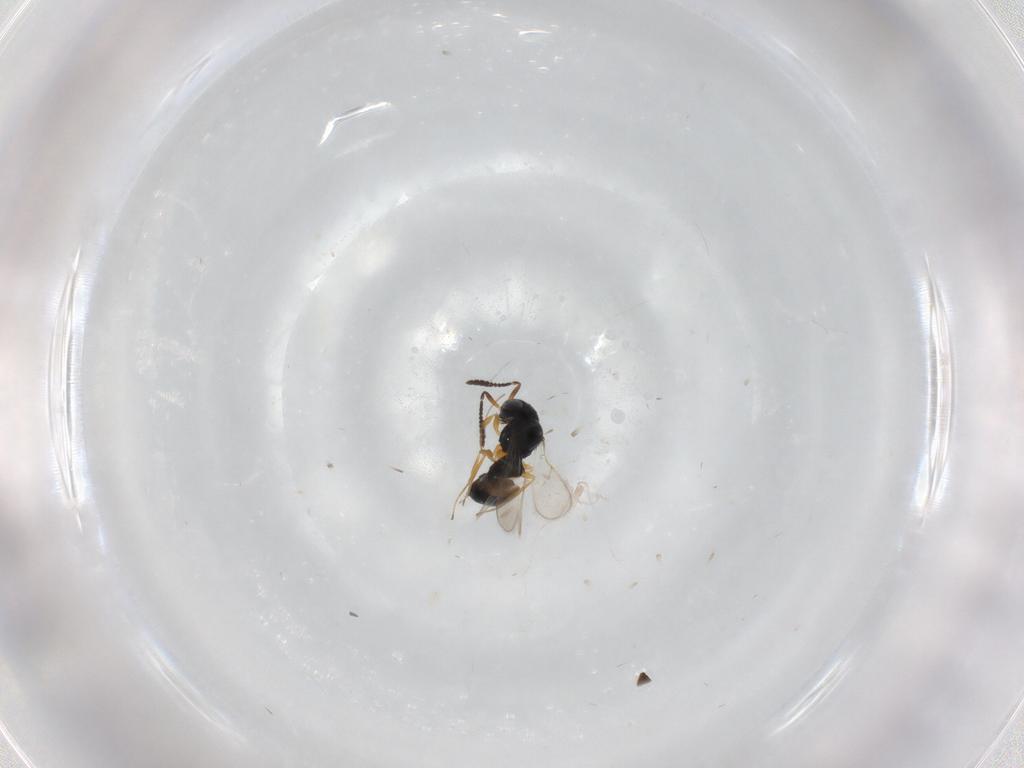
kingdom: Animalia
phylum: Arthropoda
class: Insecta
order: Hymenoptera
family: Scelionidae
